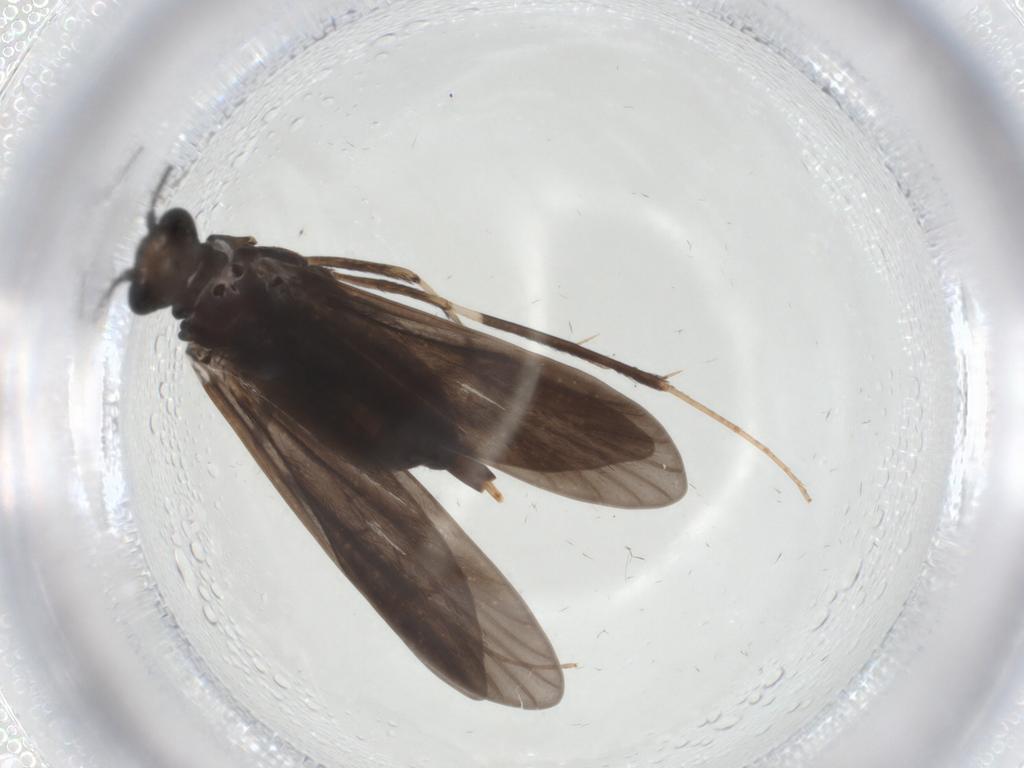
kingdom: Animalia
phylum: Arthropoda
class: Insecta
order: Trichoptera
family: Xiphocentronidae
